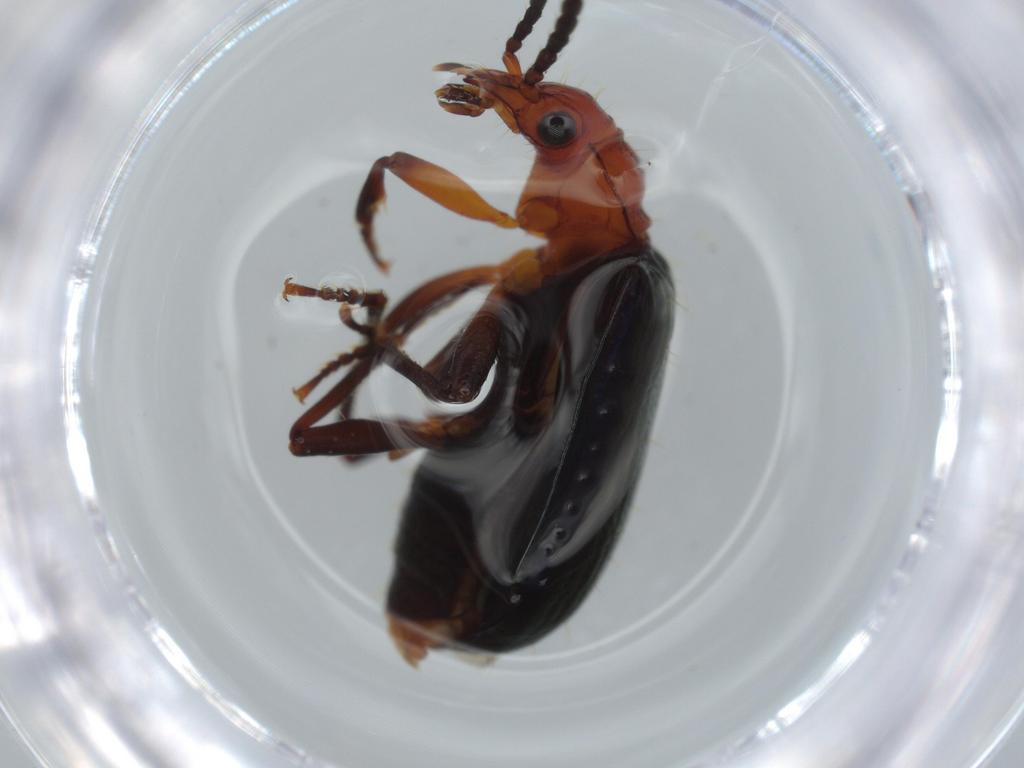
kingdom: Animalia
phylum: Arthropoda
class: Insecta
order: Coleoptera
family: Carabidae
